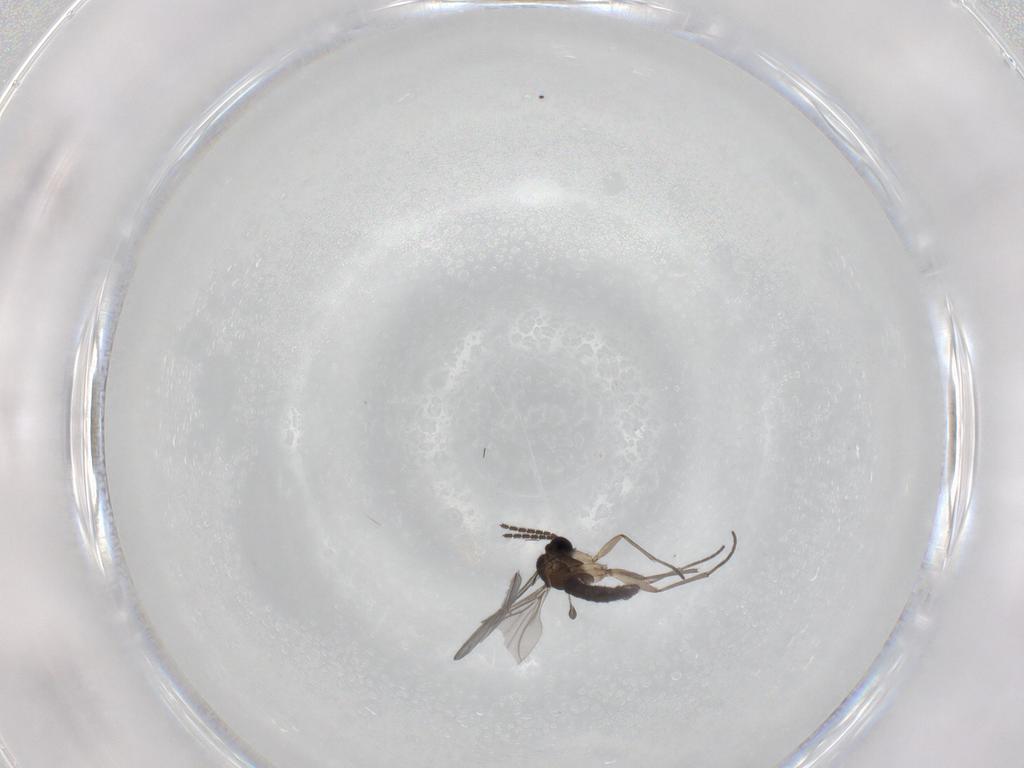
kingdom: Animalia
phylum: Arthropoda
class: Insecta
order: Diptera
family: Sciaridae
